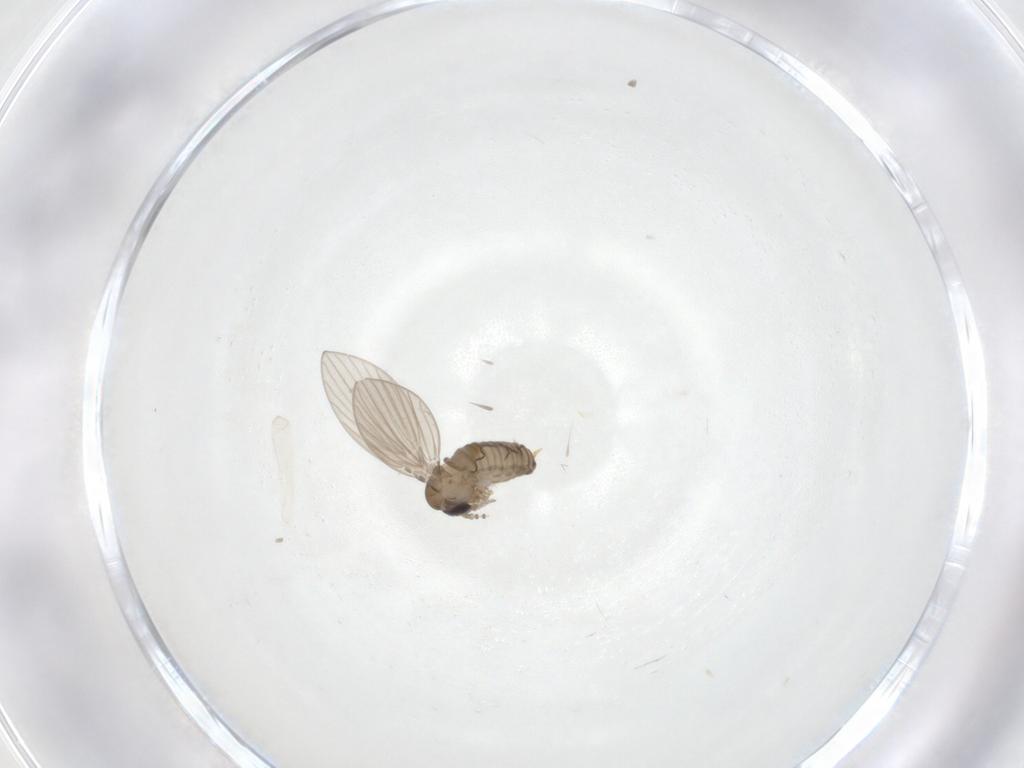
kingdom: Animalia
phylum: Arthropoda
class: Insecta
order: Diptera
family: Psychodidae
